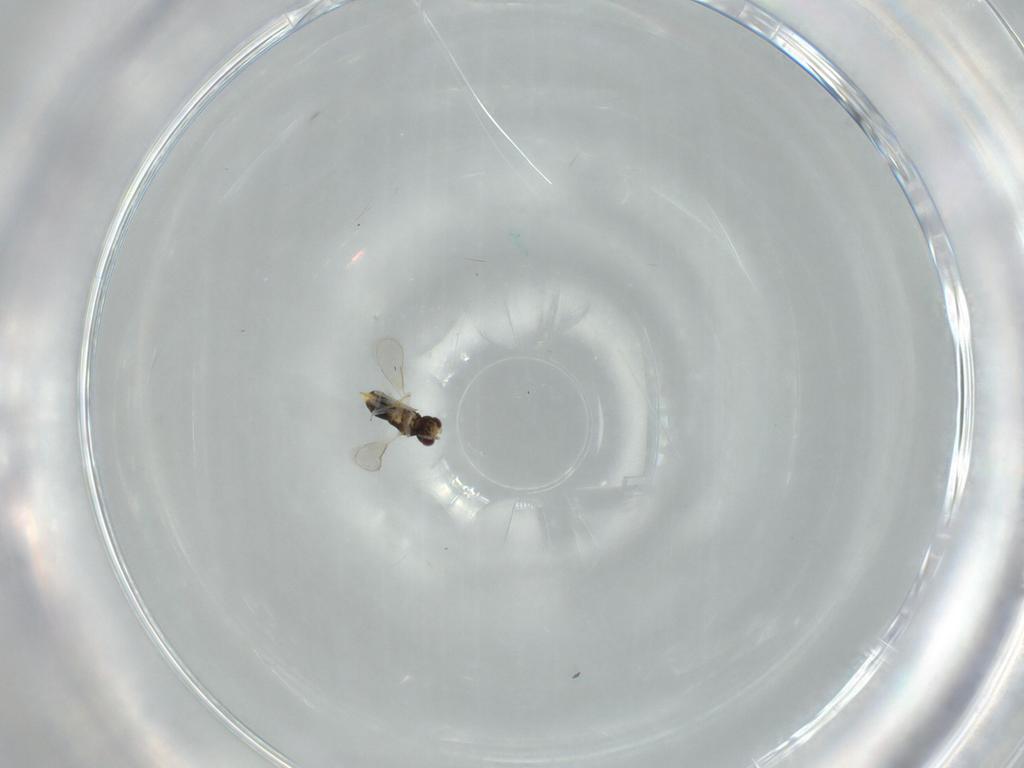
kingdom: Animalia
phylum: Arthropoda
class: Insecta
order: Hymenoptera
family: Aphelinidae
